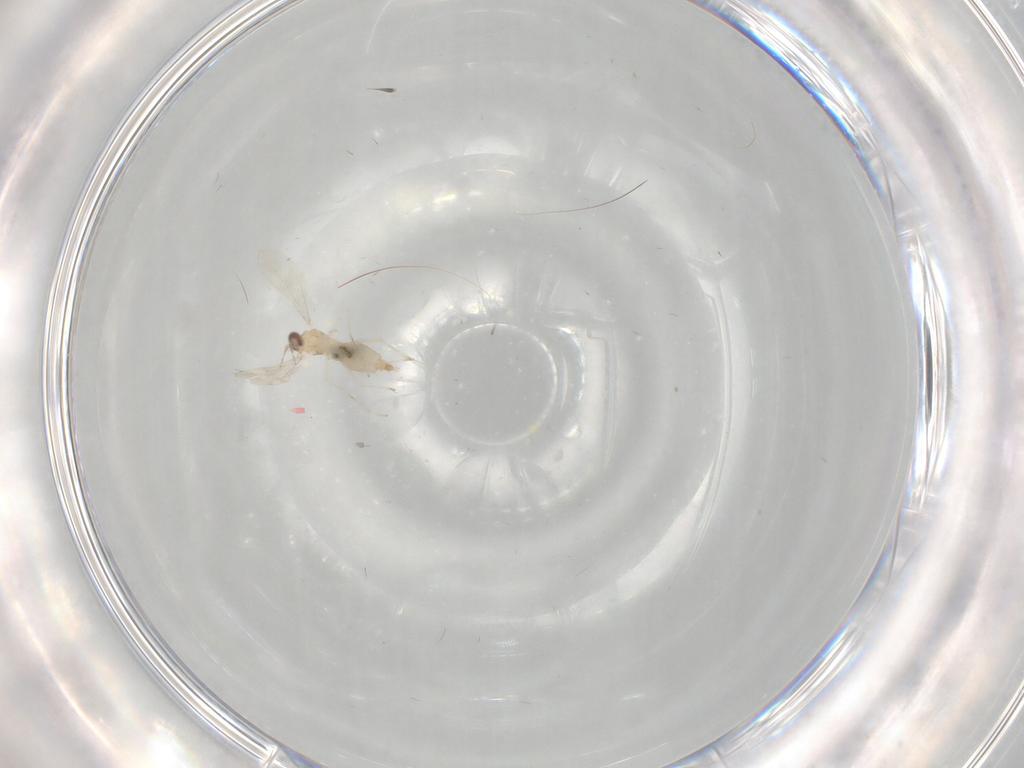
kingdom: Animalia
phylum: Arthropoda
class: Insecta
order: Diptera
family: Cecidomyiidae
